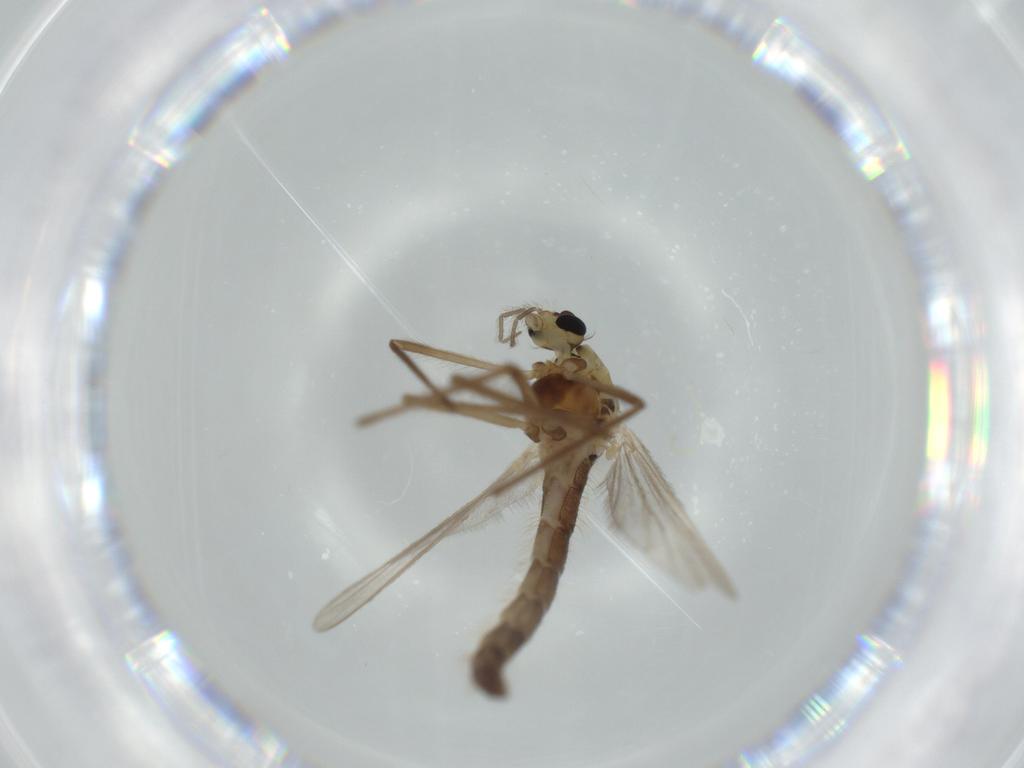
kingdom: Animalia
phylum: Arthropoda
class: Insecta
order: Diptera
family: Chironomidae
